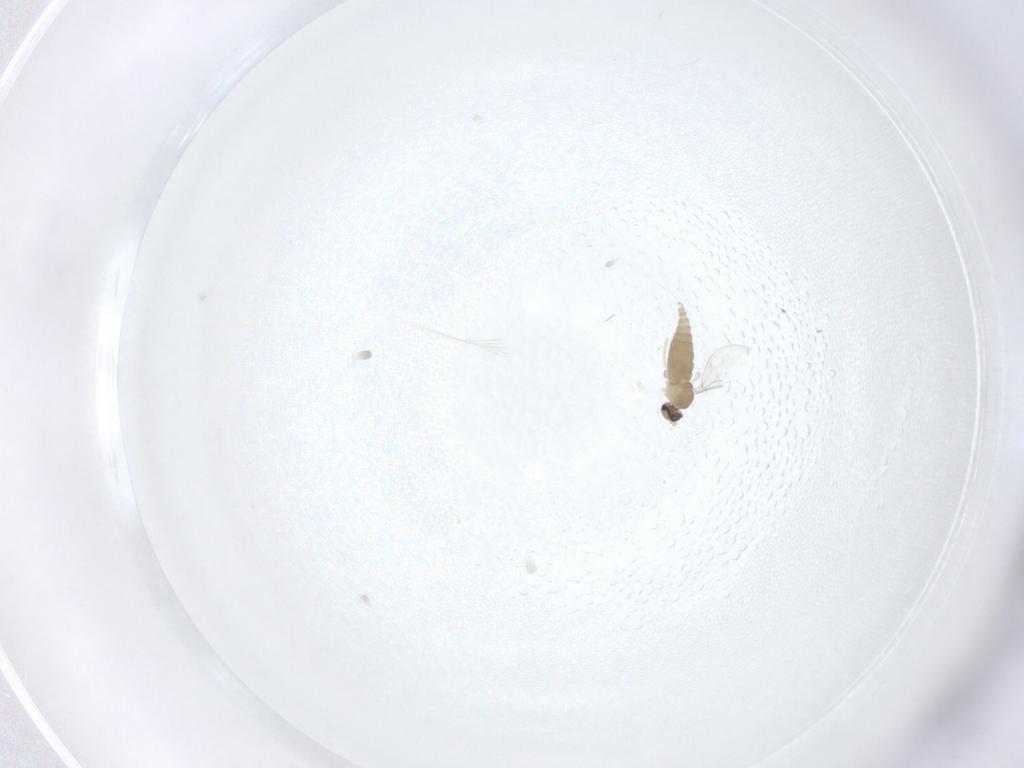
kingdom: Animalia
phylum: Arthropoda
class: Insecta
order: Diptera
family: Cecidomyiidae
